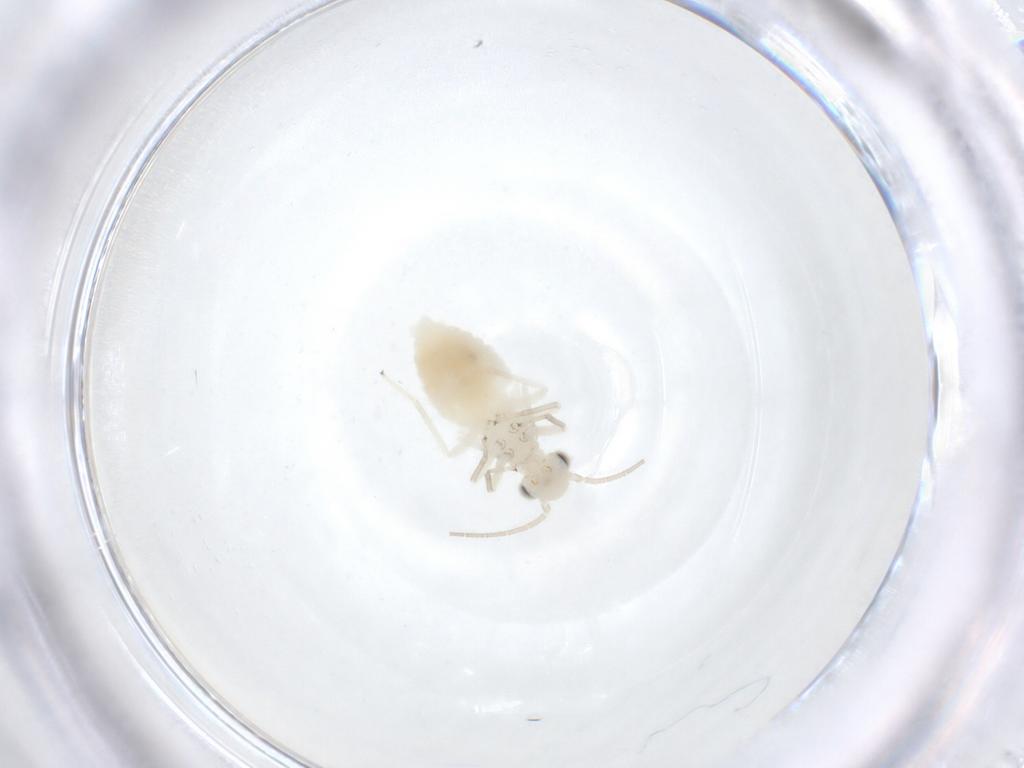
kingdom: Animalia
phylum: Arthropoda
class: Insecta
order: Psocodea
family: Caeciliusidae
